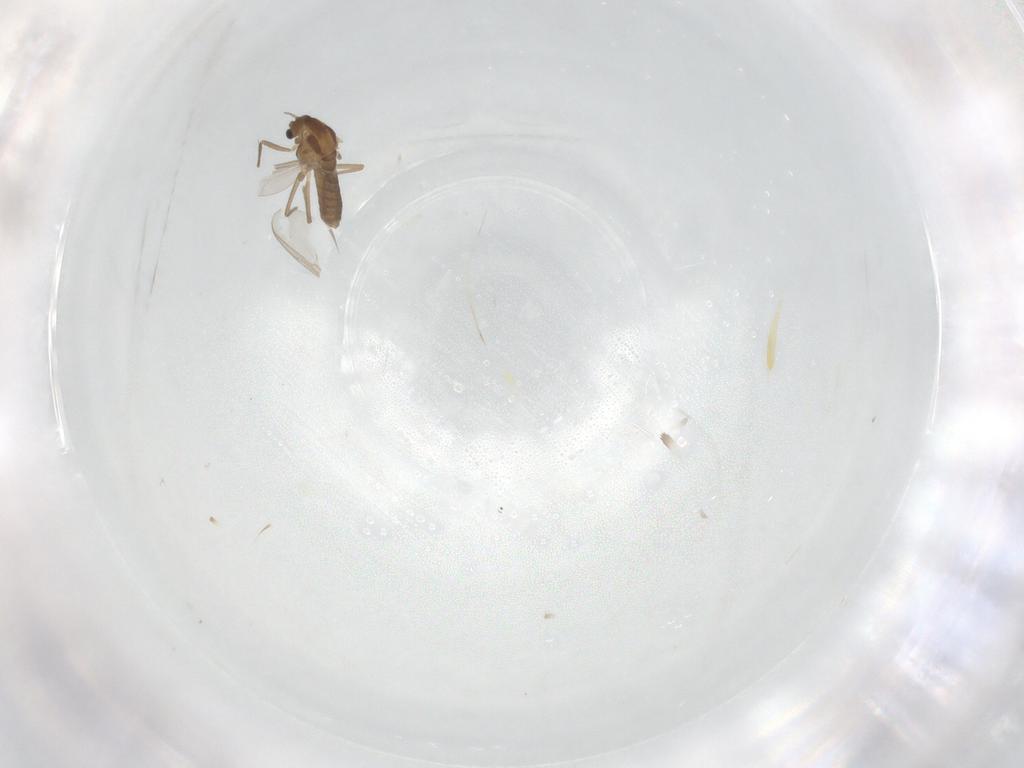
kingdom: Animalia
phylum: Arthropoda
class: Insecta
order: Diptera
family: Chironomidae
